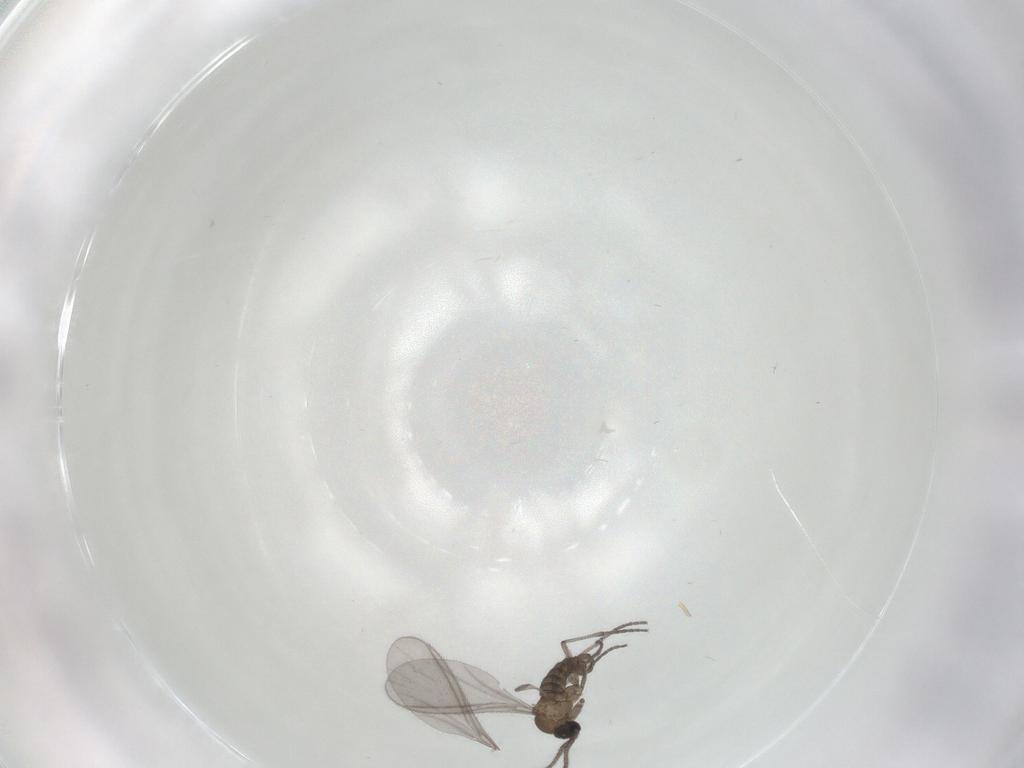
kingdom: Animalia
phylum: Arthropoda
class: Insecta
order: Diptera
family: Sciaridae
